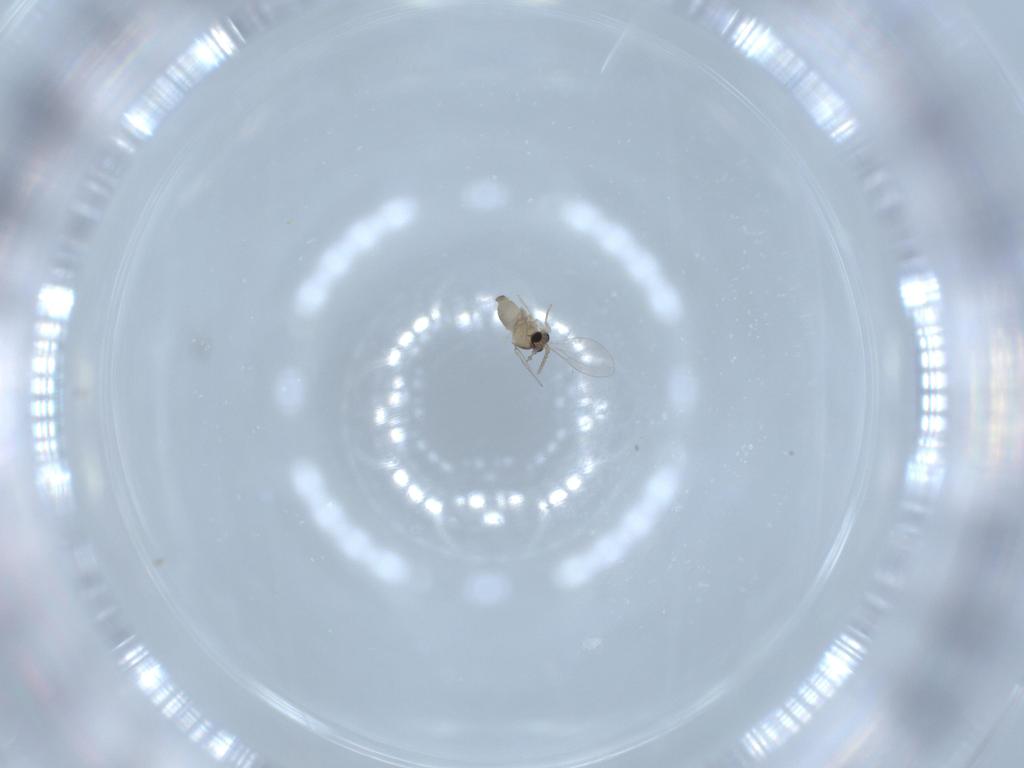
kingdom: Animalia
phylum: Arthropoda
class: Insecta
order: Diptera
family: Cecidomyiidae
